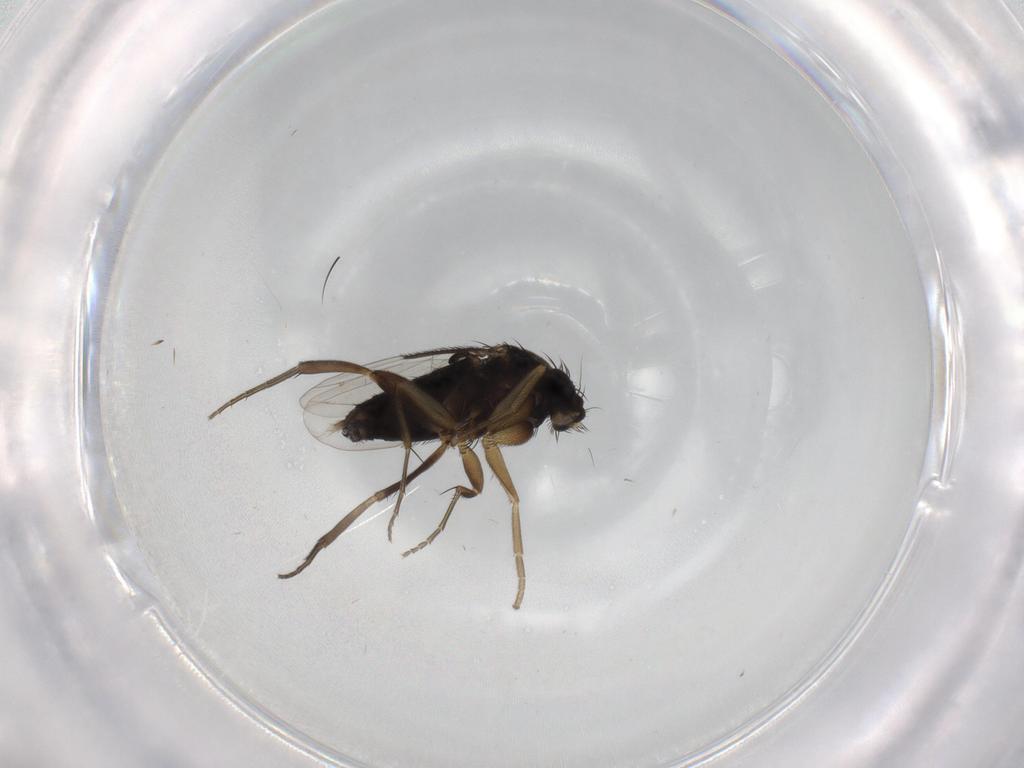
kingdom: Animalia
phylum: Arthropoda
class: Insecta
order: Diptera
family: Phoridae
